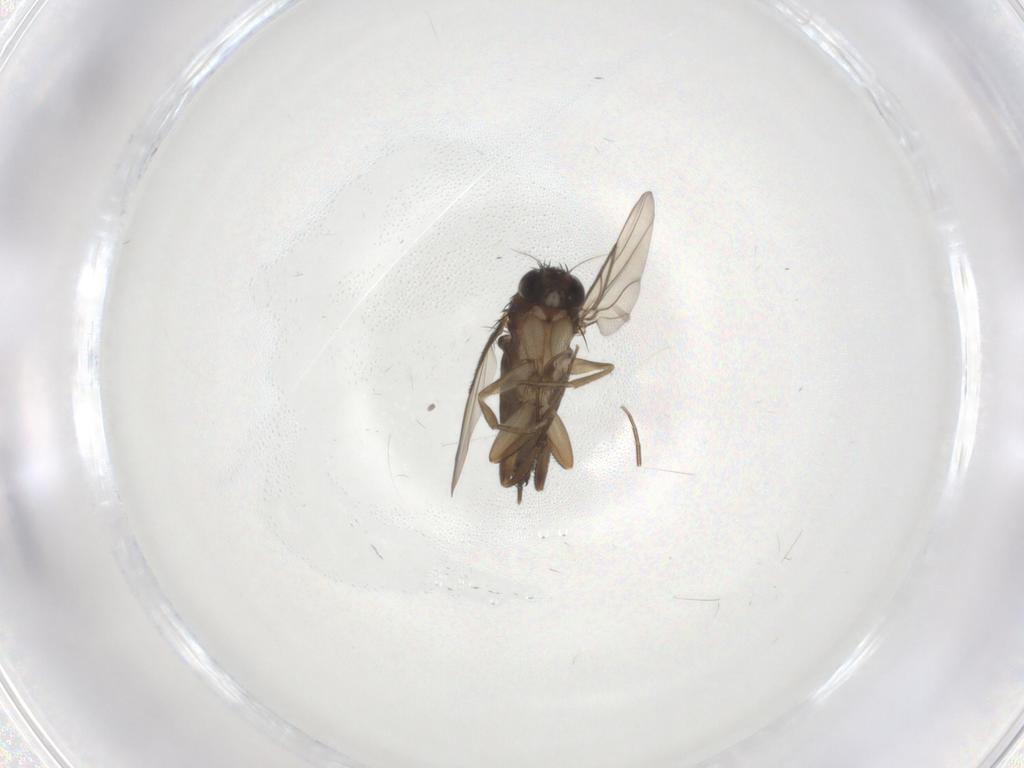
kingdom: Animalia
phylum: Arthropoda
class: Insecta
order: Diptera
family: Phoridae
